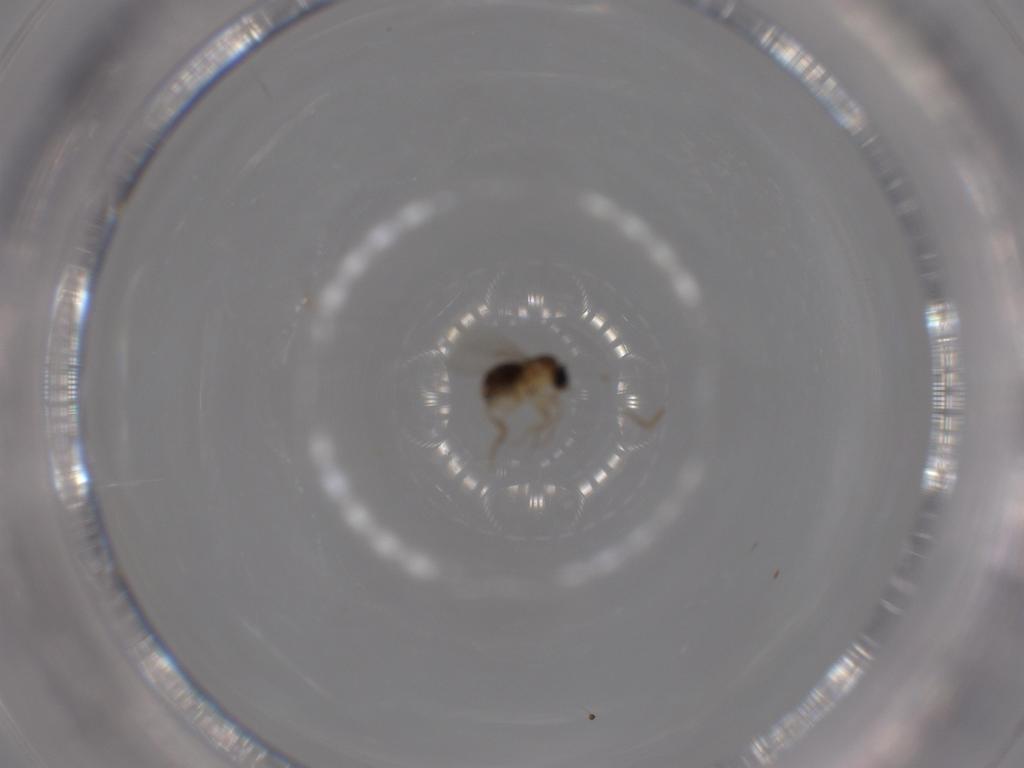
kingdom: Animalia
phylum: Arthropoda
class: Insecta
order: Diptera
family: Phoridae
